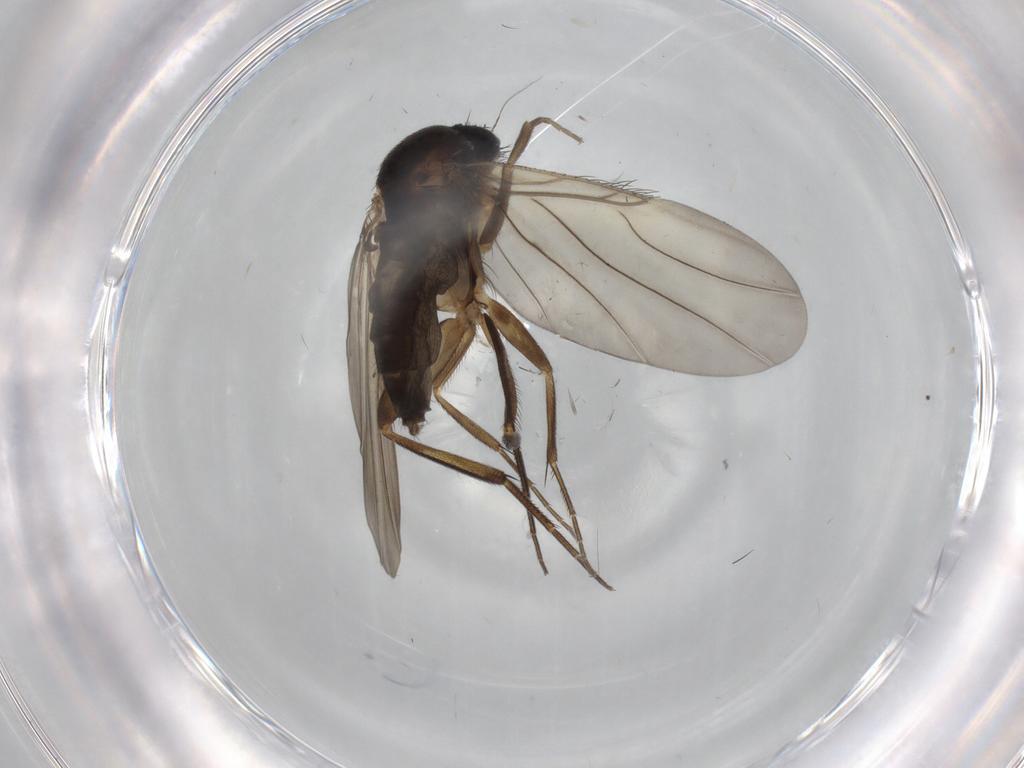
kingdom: Animalia
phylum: Arthropoda
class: Insecta
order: Diptera
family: Phoridae
